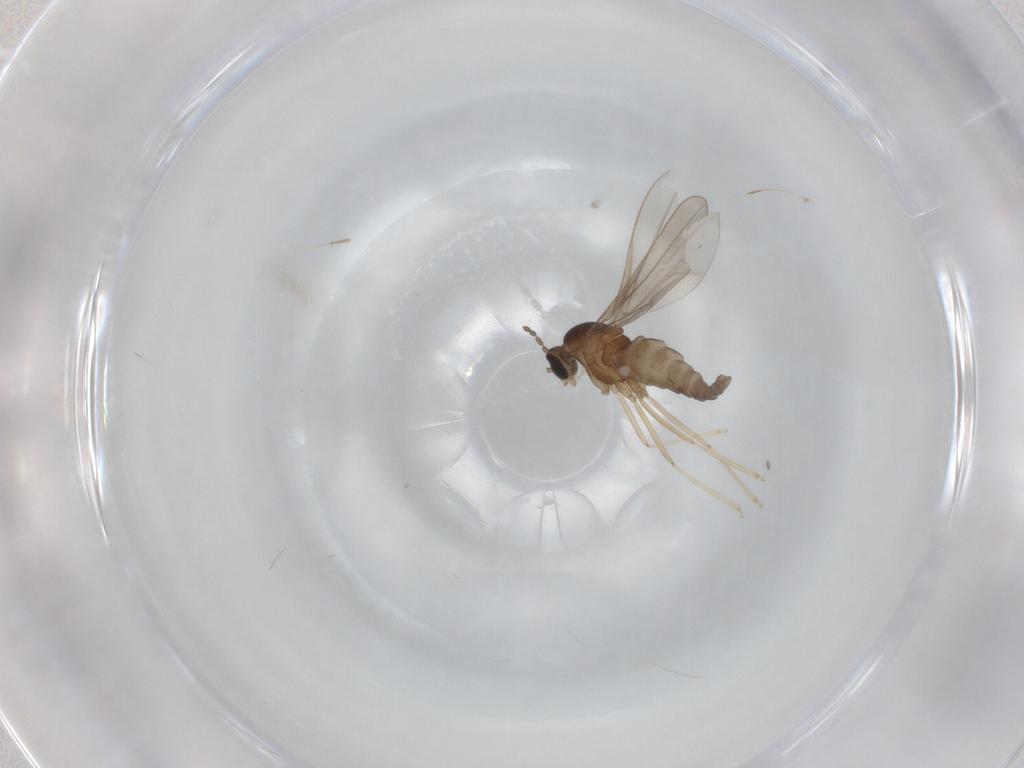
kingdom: Animalia
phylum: Arthropoda
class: Insecta
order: Diptera
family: Cecidomyiidae
